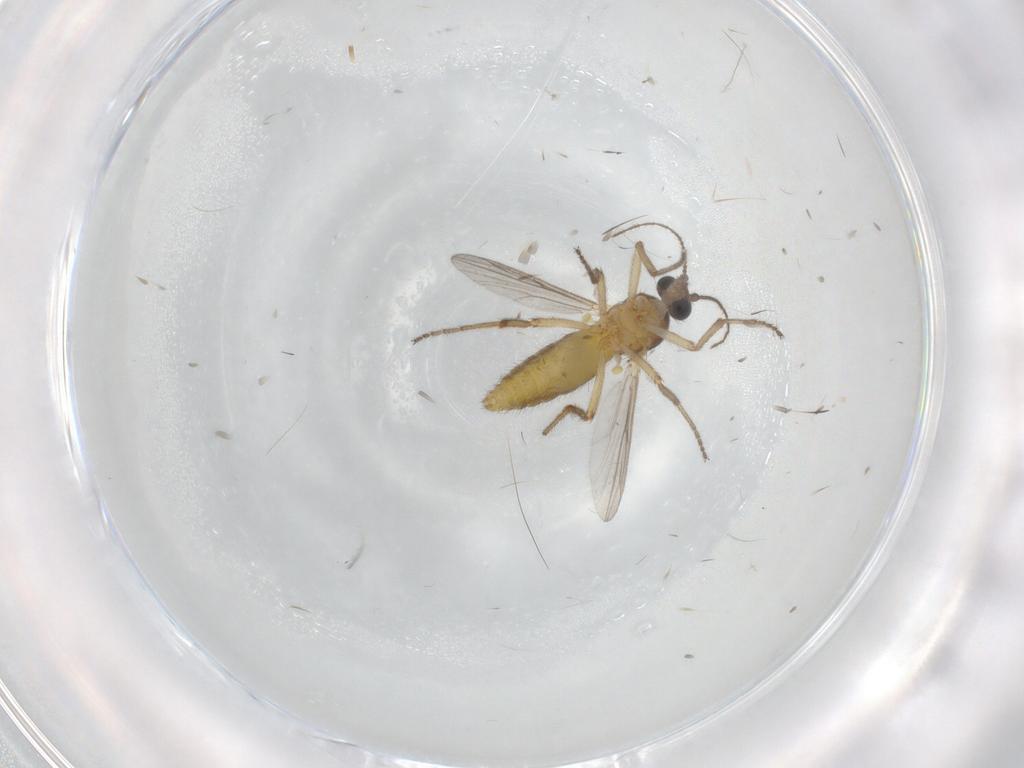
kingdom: Animalia
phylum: Arthropoda
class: Insecta
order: Diptera
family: Ceratopogonidae
